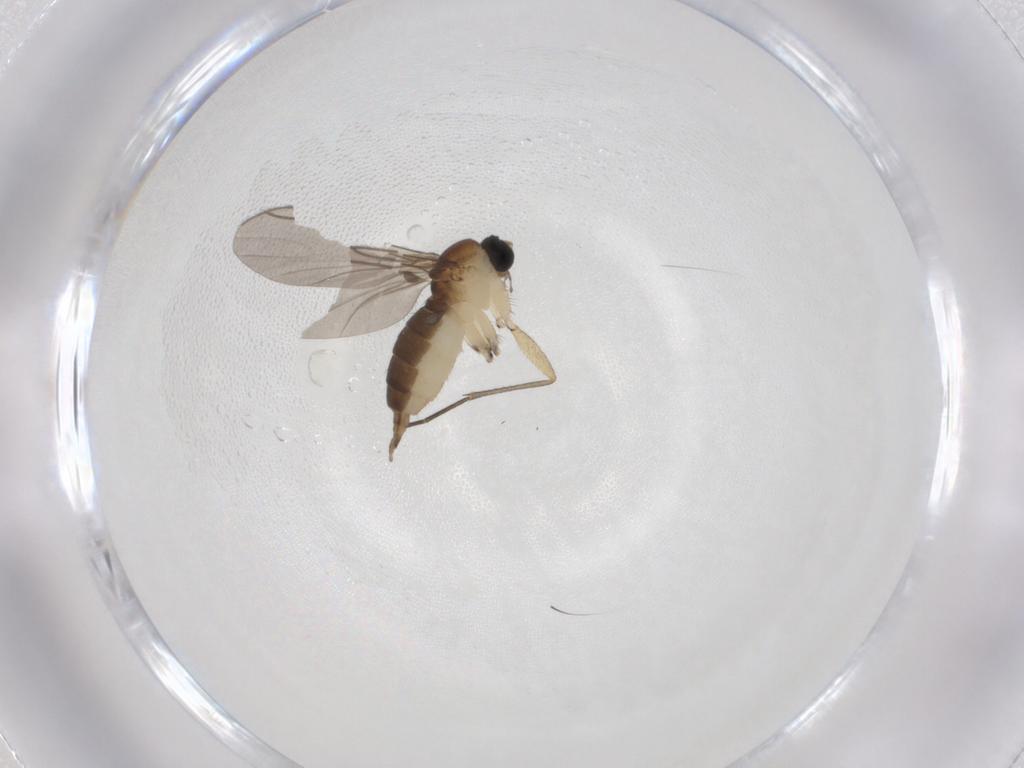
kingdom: Animalia
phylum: Arthropoda
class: Insecta
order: Diptera
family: Sciaridae
